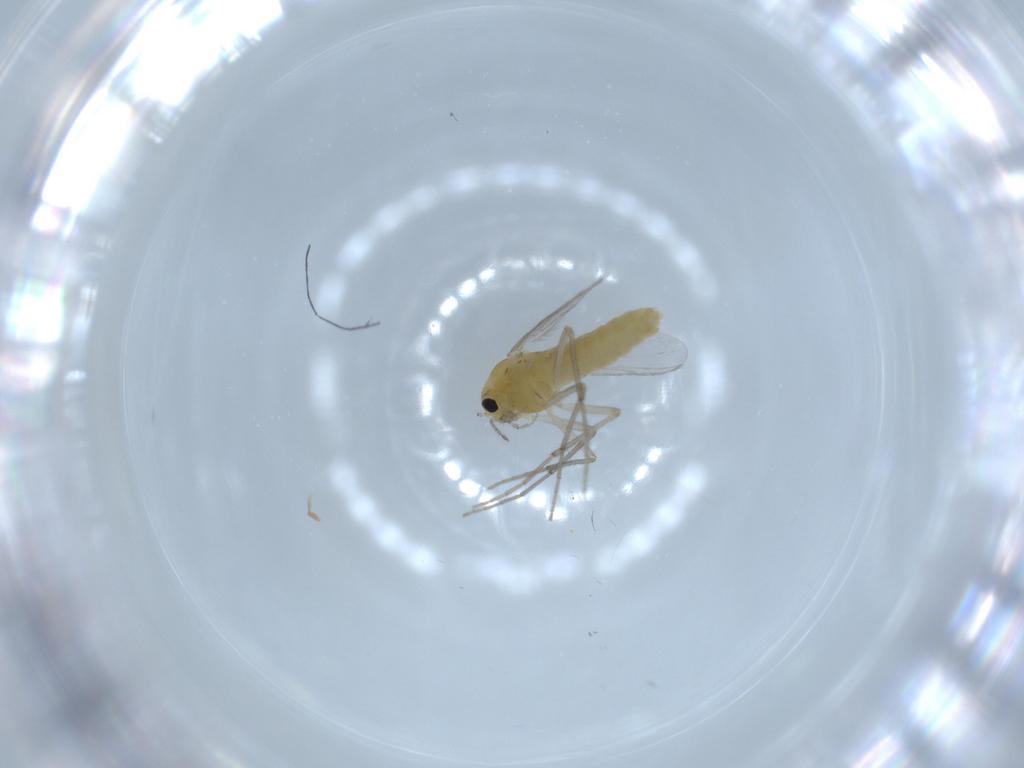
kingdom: Animalia
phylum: Arthropoda
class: Insecta
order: Diptera
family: Chironomidae
